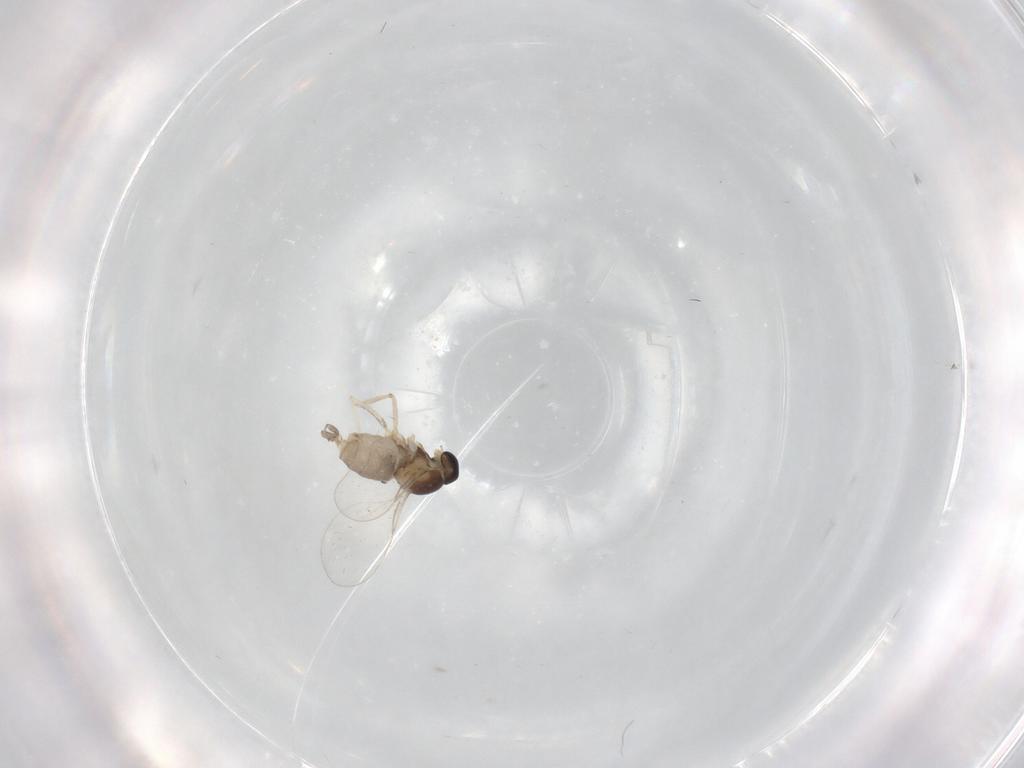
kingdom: Animalia
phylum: Arthropoda
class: Insecta
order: Diptera
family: Cecidomyiidae
